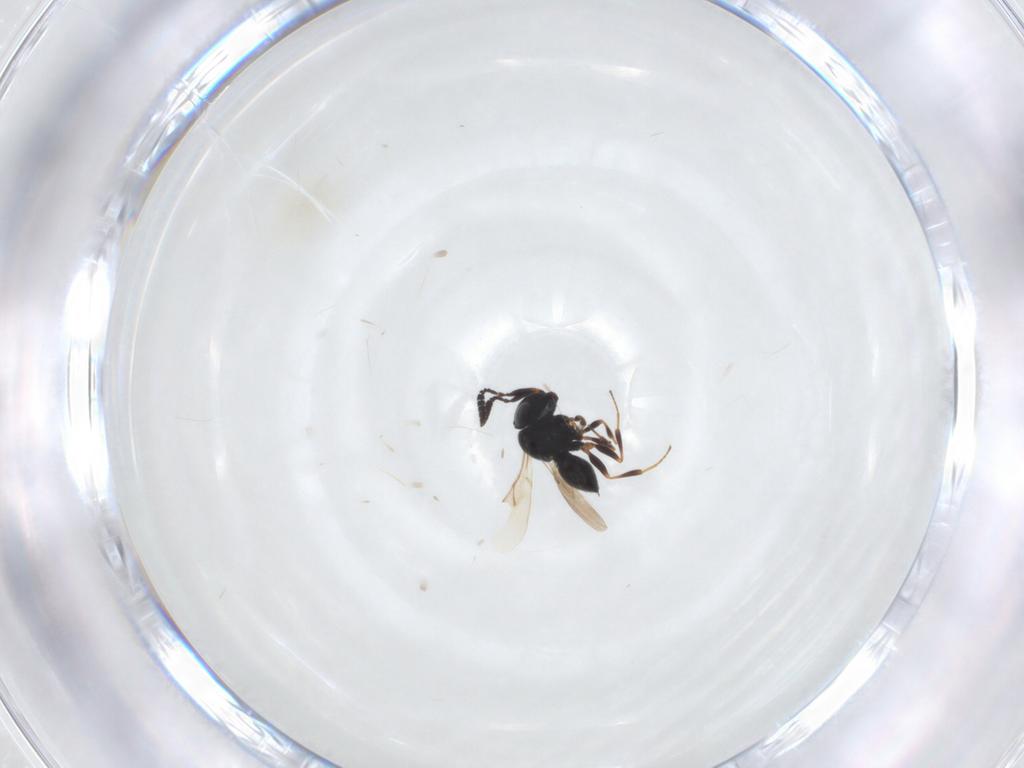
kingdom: Animalia
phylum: Arthropoda
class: Insecta
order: Hymenoptera
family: Scelionidae
